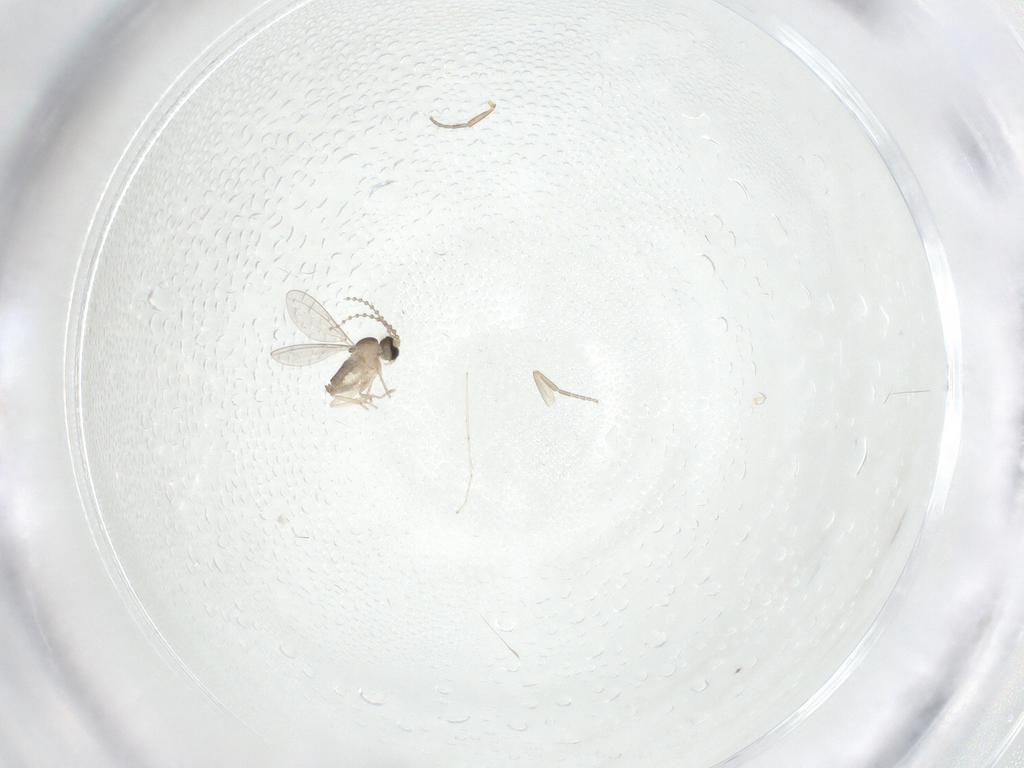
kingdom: Animalia
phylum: Arthropoda
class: Insecta
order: Diptera
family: Cecidomyiidae
